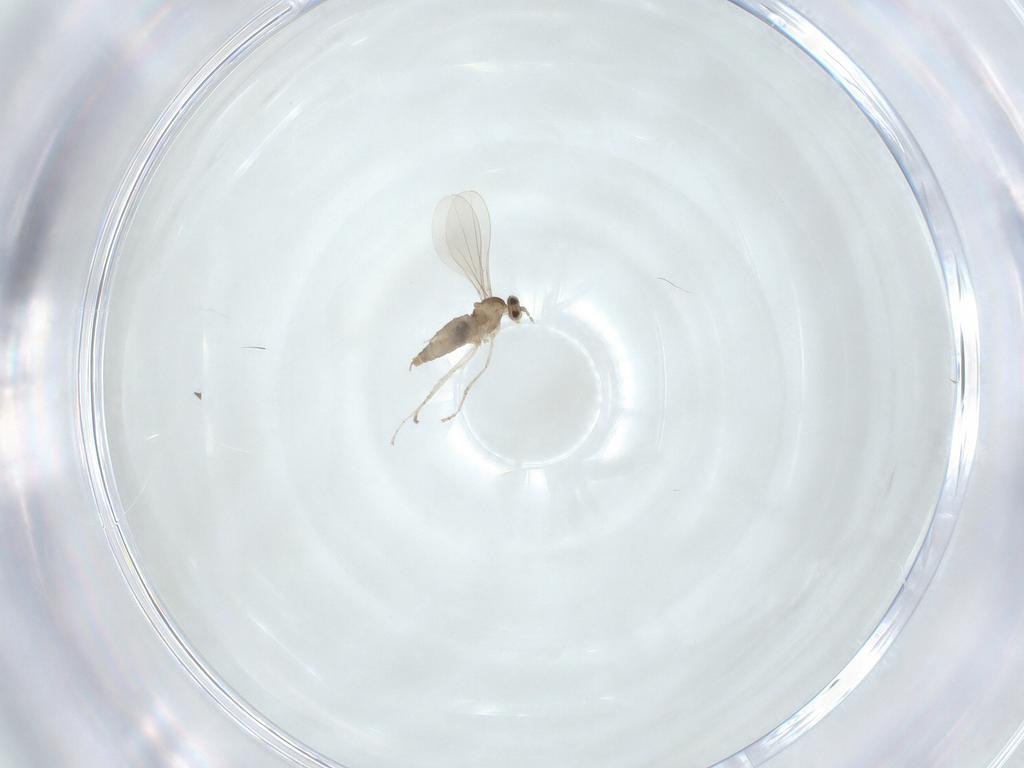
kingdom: Animalia
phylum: Arthropoda
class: Insecta
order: Diptera
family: Cecidomyiidae
